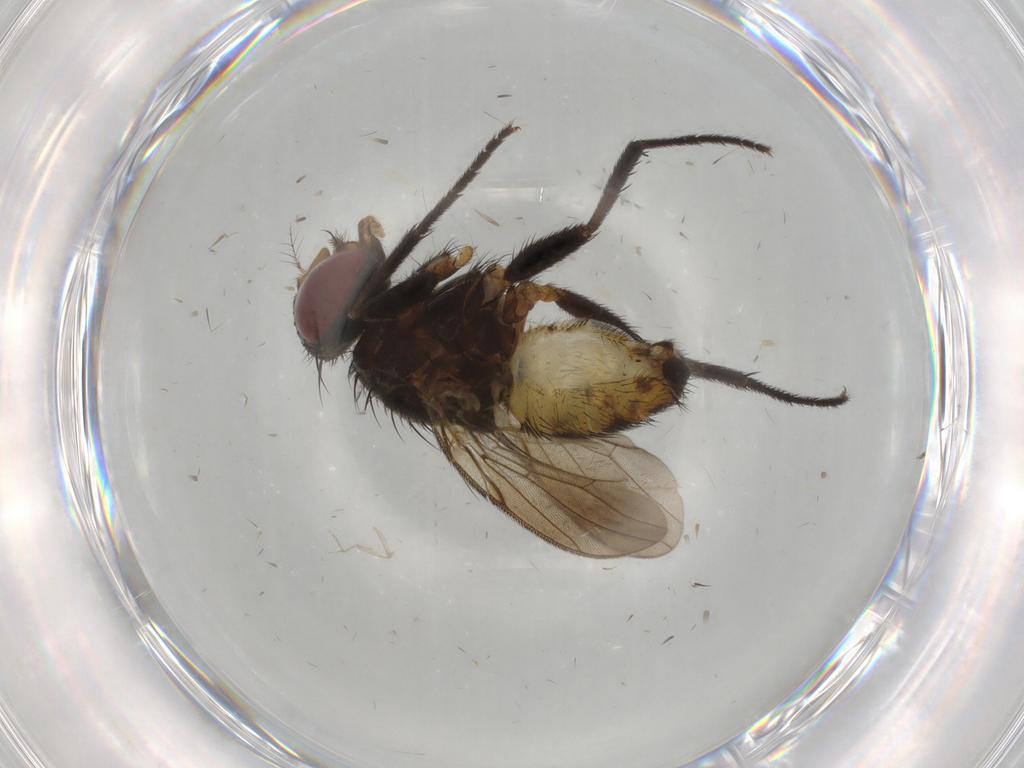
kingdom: Animalia
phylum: Arthropoda
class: Insecta
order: Diptera
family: Anthomyiidae
